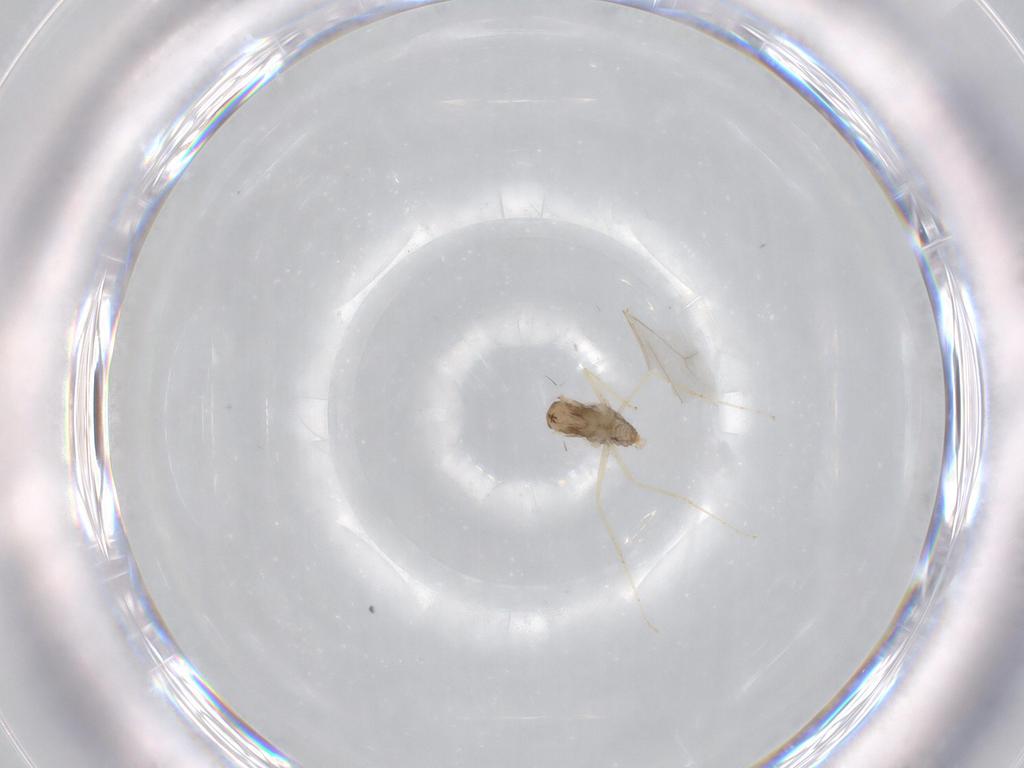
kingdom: Animalia
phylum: Arthropoda
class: Insecta
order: Diptera
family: Cecidomyiidae
